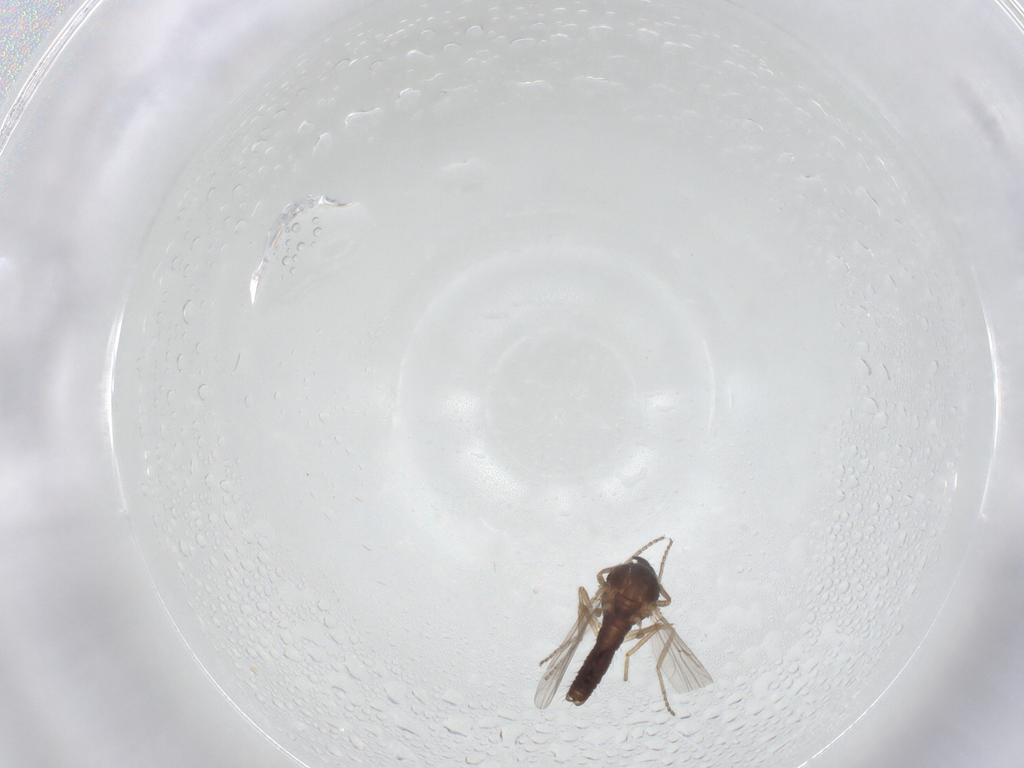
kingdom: Animalia
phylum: Arthropoda
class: Insecta
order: Diptera
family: Ceratopogonidae
